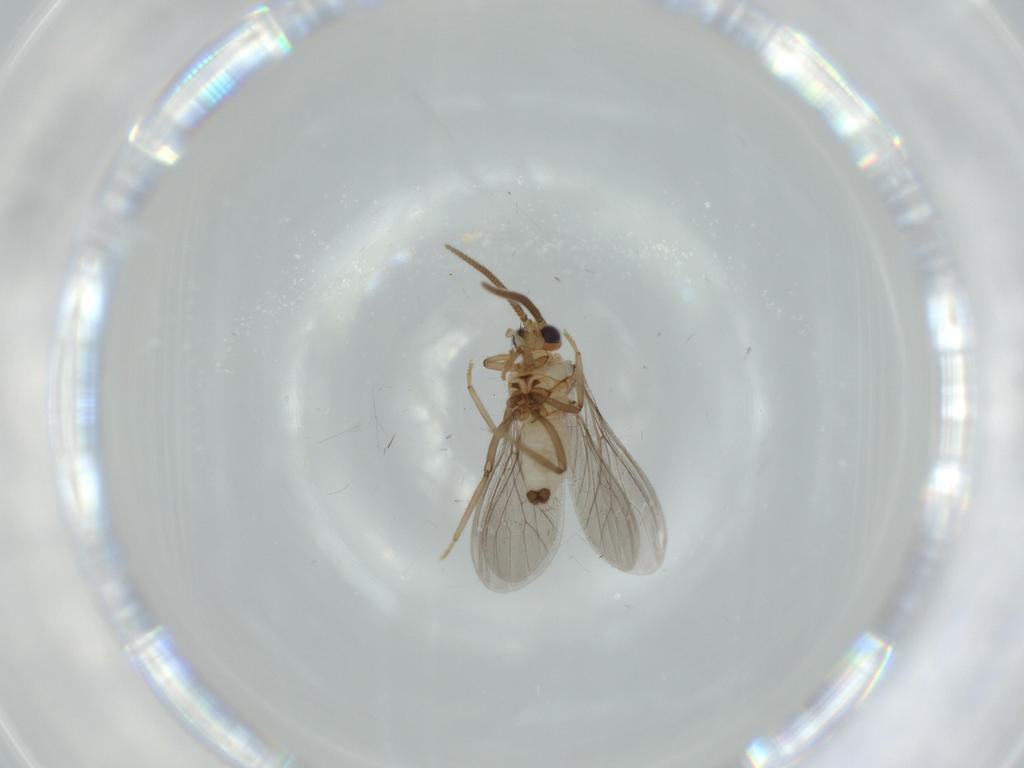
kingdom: Animalia
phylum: Arthropoda
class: Insecta
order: Neuroptera
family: Coniopterygidae
